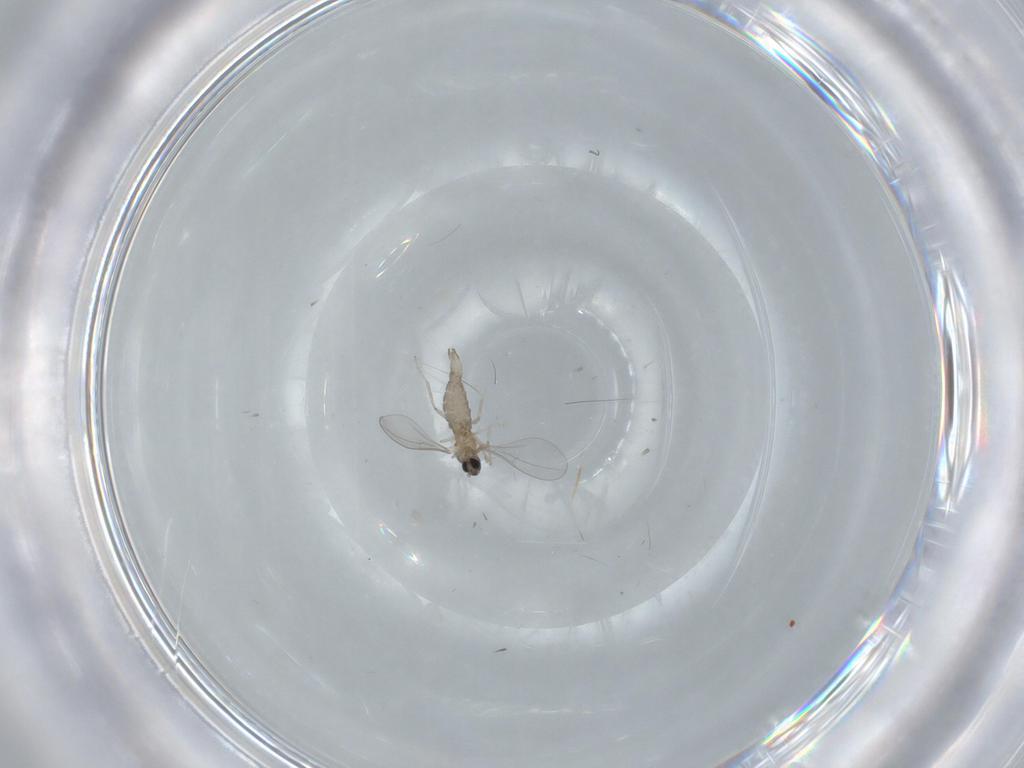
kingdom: Animalia
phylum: Arthropoda
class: Insecta
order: Diptera
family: Cecidomyiidae
